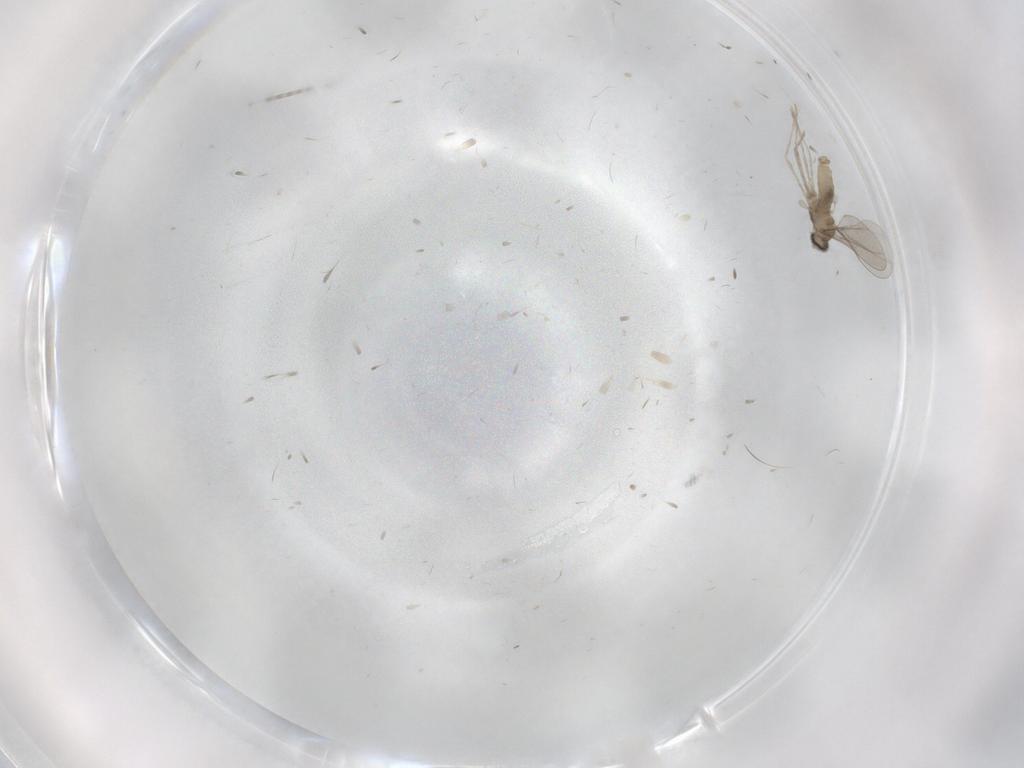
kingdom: Animalia
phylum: Arthropoda
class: Insecta
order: Diptera
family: Cecidomyiidae
